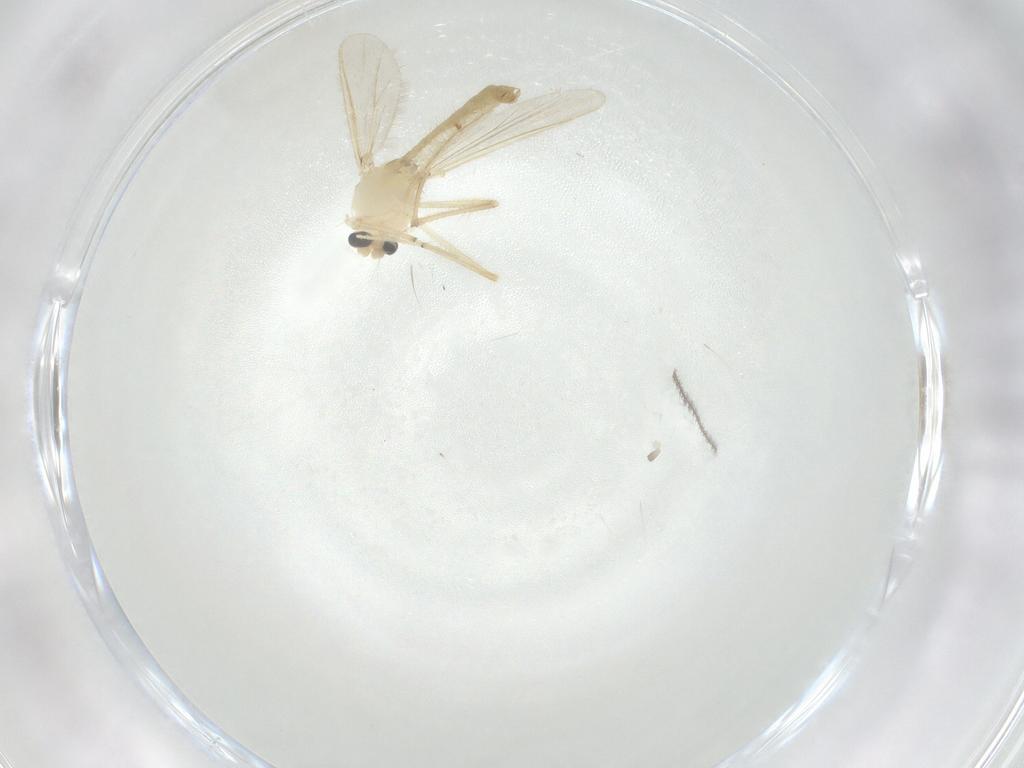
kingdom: Animalia
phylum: Arthropoda
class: Insecta
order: Diptera
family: Chironomidae
